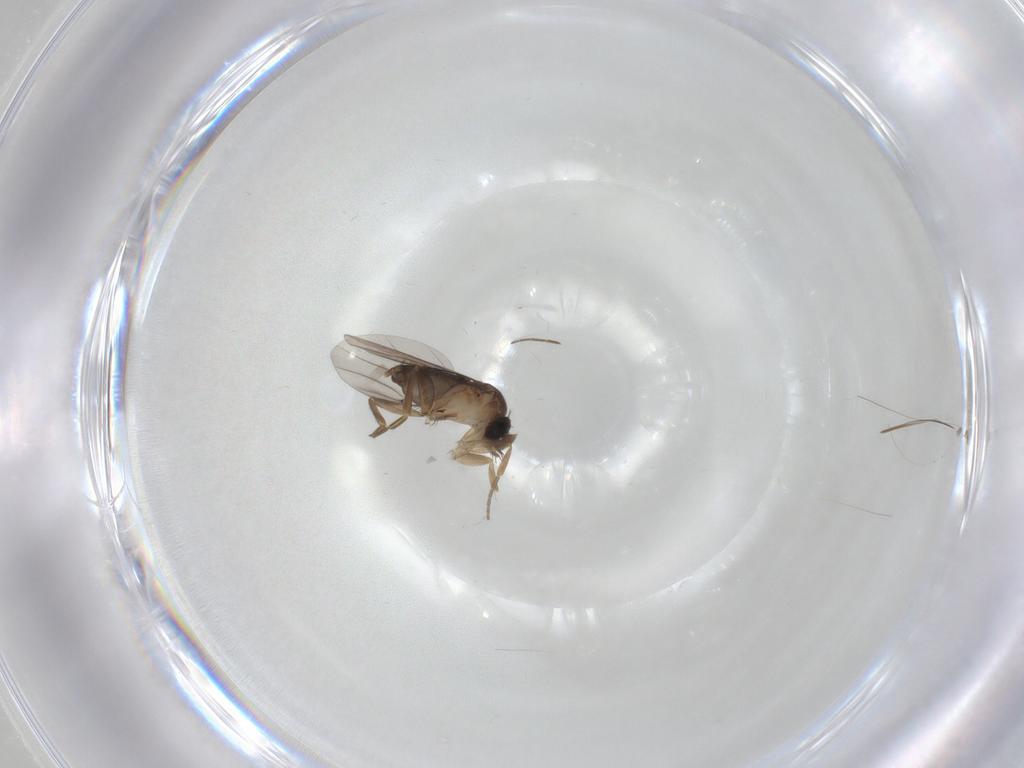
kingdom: Animalia
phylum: Arthropoda
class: Insecta
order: Diptera
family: Phoridae
